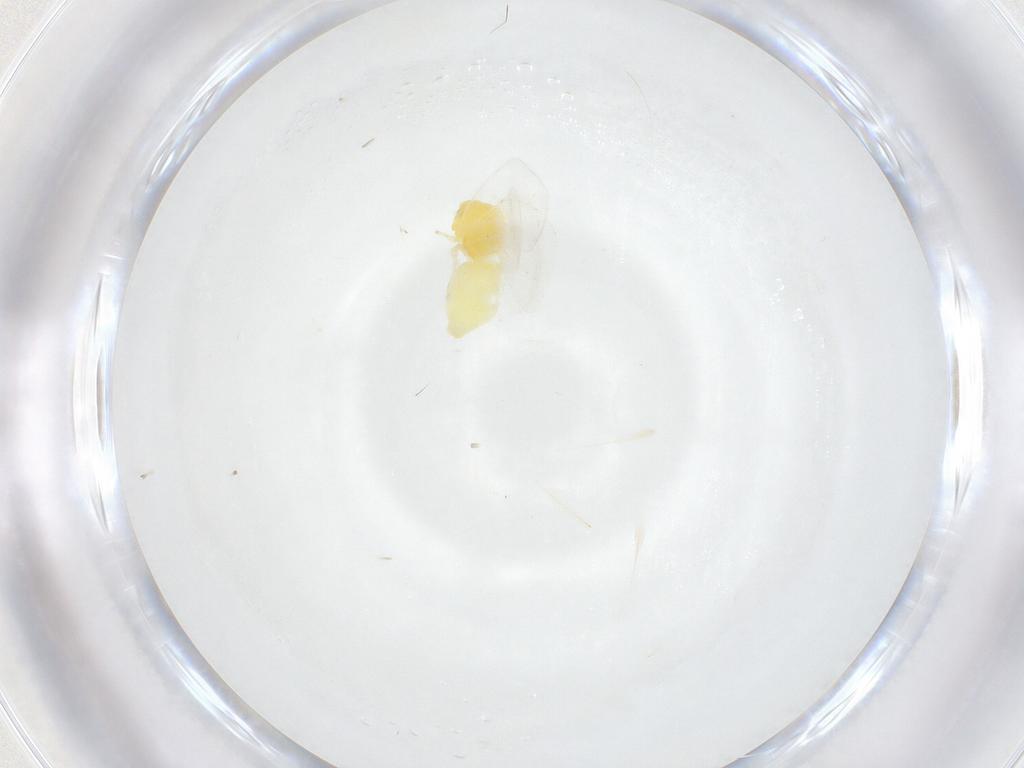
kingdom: Animalia
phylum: Arthropoda
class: Insecta
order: Hemiptera
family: Aleyrodidae
